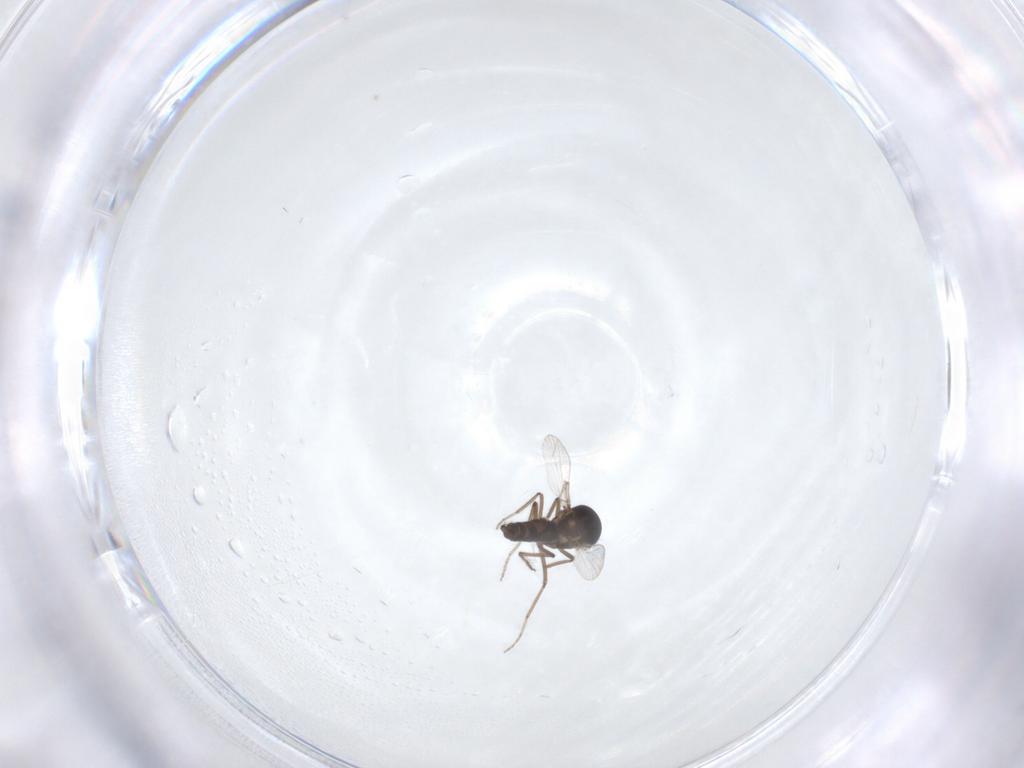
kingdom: Animalia
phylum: Arthropoda
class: Insecta
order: Diptera
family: Ceratopogonidae
